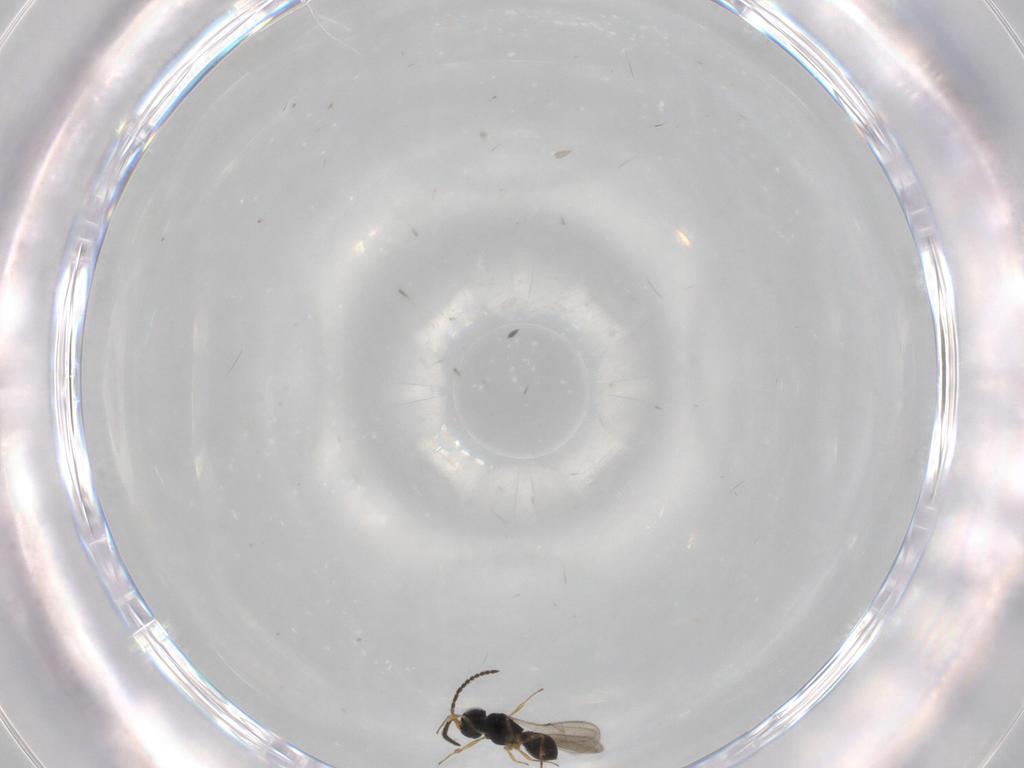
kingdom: Animalia
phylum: Arthropoda
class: Insecta
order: Hymenoptera
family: Scelionidae
